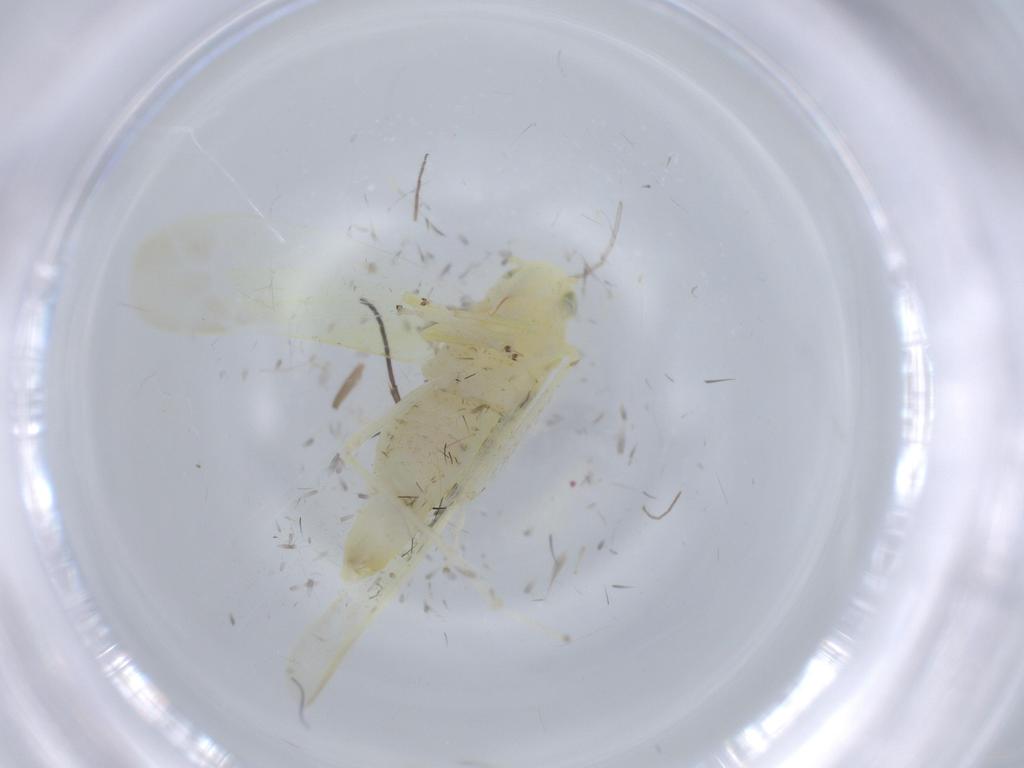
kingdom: Animalia
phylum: Arthropoda
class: Insecta
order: Hemiptera
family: Cicadellidae
